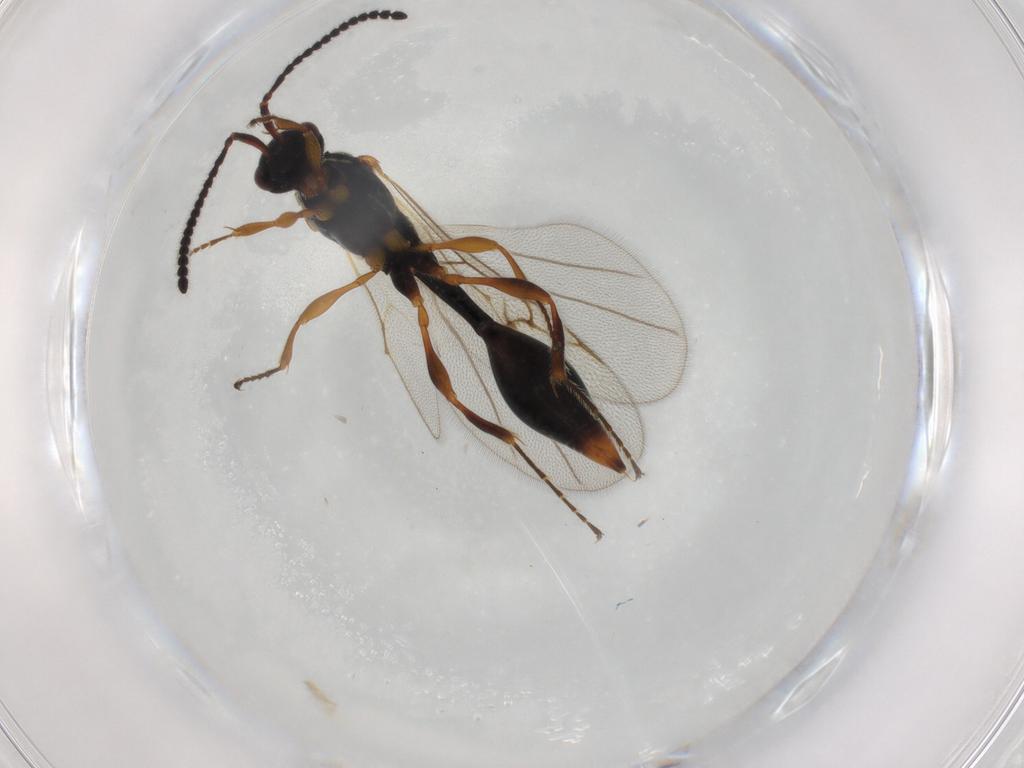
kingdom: Animalia
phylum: Arthropoda
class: Insecta
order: Hymenoptera
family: Diapriidae
